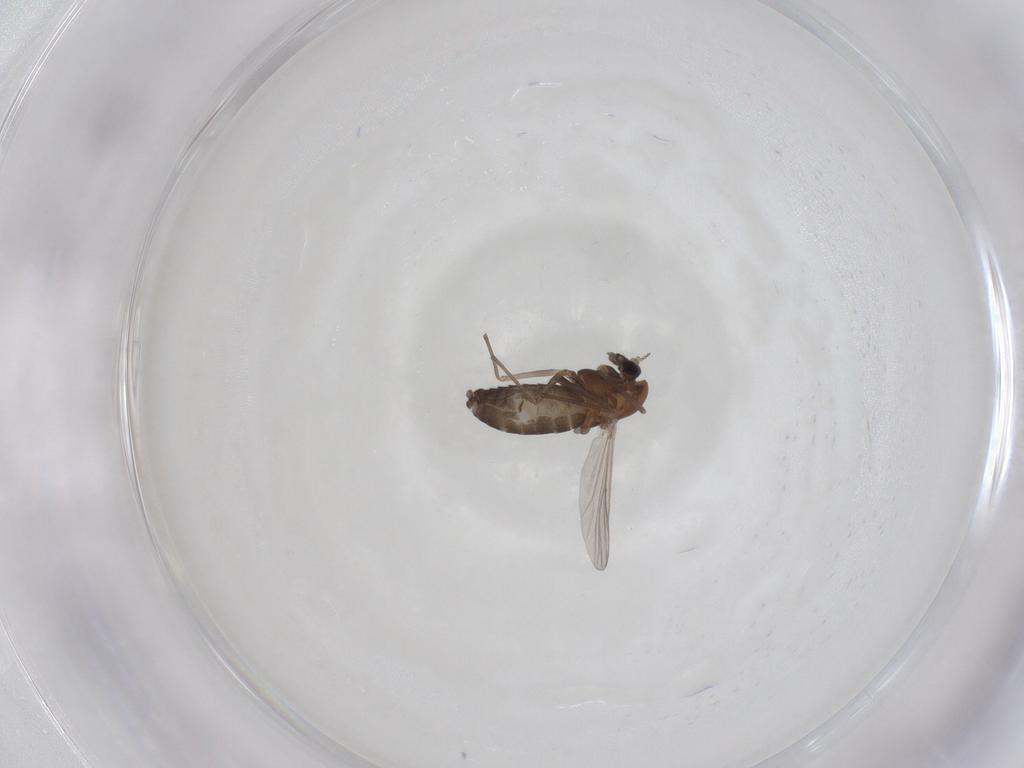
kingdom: Animalia
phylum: Arthropoda
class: Insecta
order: Diptera
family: Chironomidae
